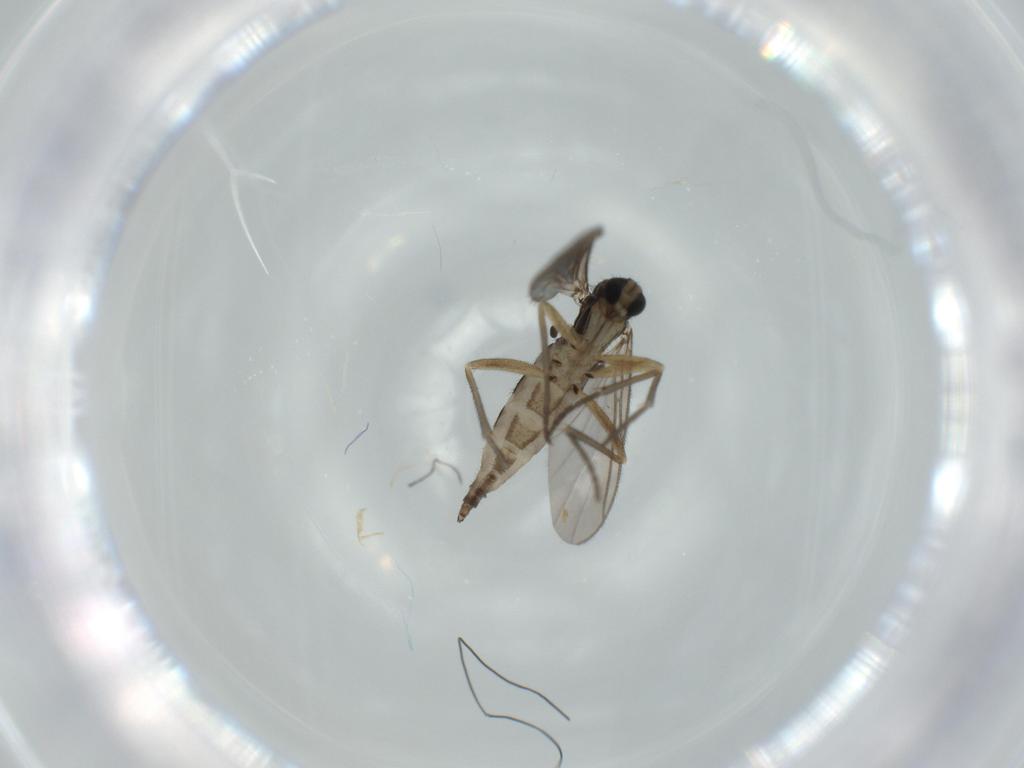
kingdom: Animalia
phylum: Arthropoda
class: Insecta
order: Diptera
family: Sciaridae
